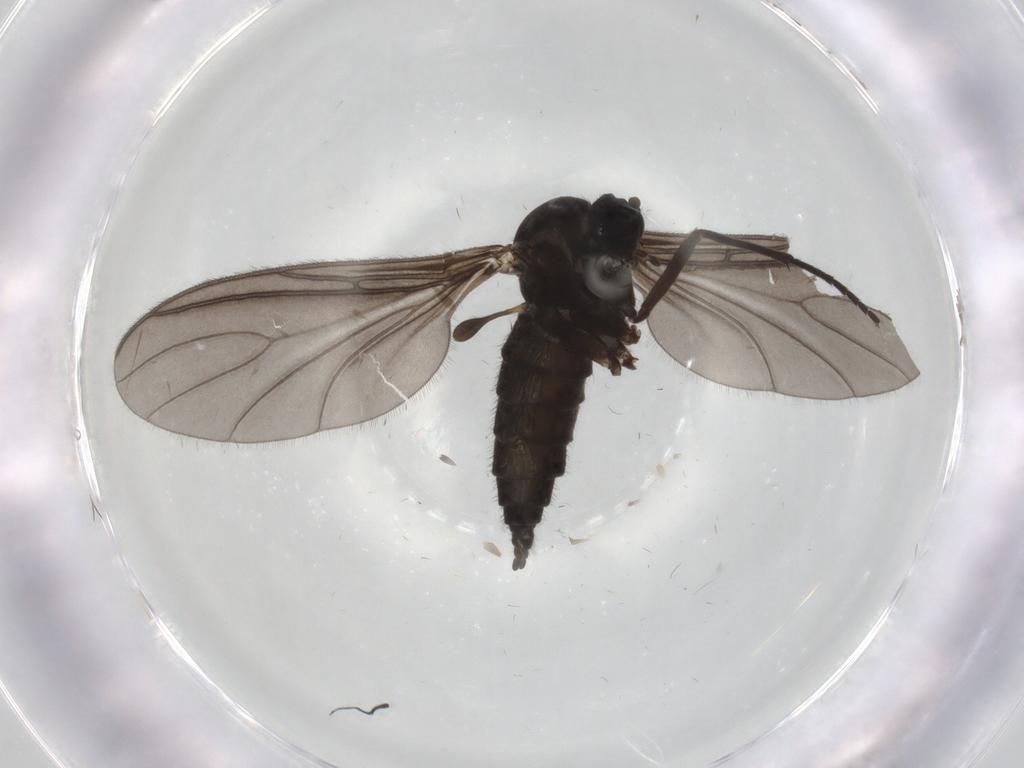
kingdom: Animalia
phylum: Arthropoda
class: Insecta
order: Diptera
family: Sciaridae
